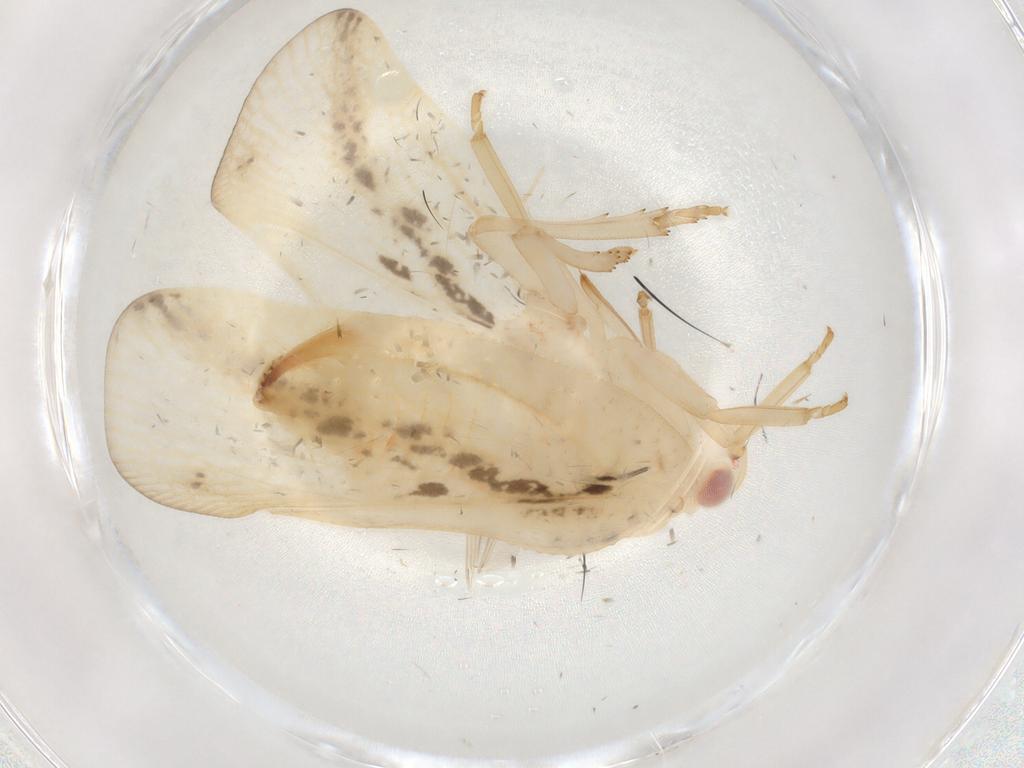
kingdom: Animalia
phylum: Arthropoda
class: Insecta
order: Hemiptera
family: Flatidae
